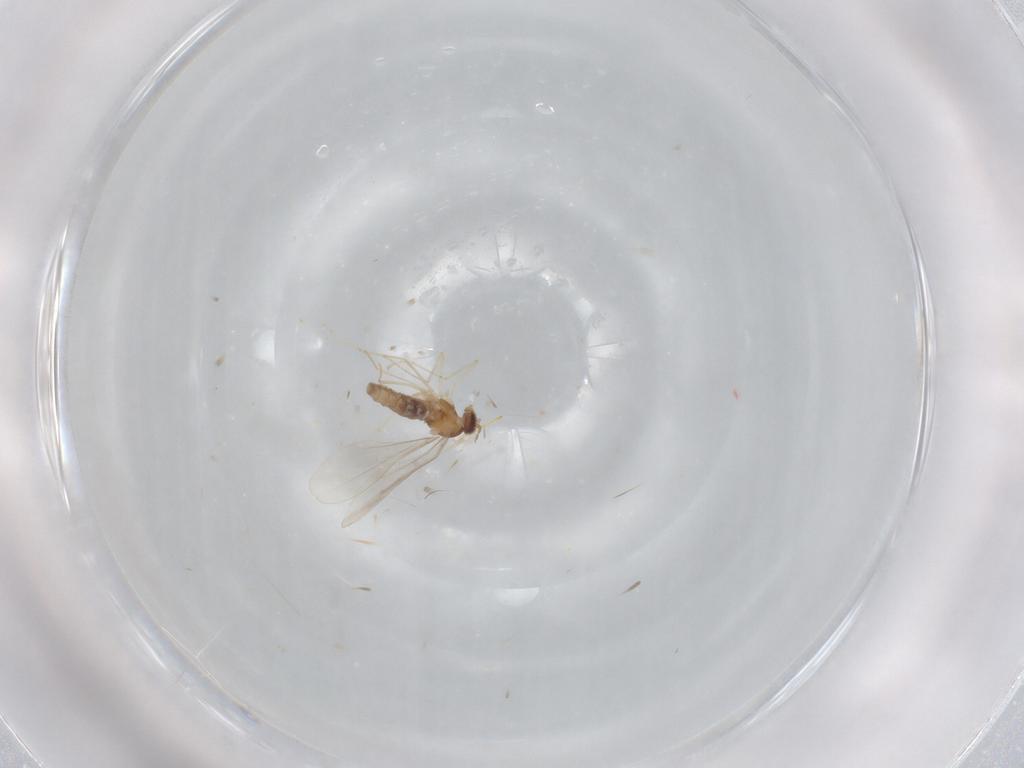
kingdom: Animalia
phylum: Arthropoda
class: Insecta
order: Diptera
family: Cecidomyiidae
